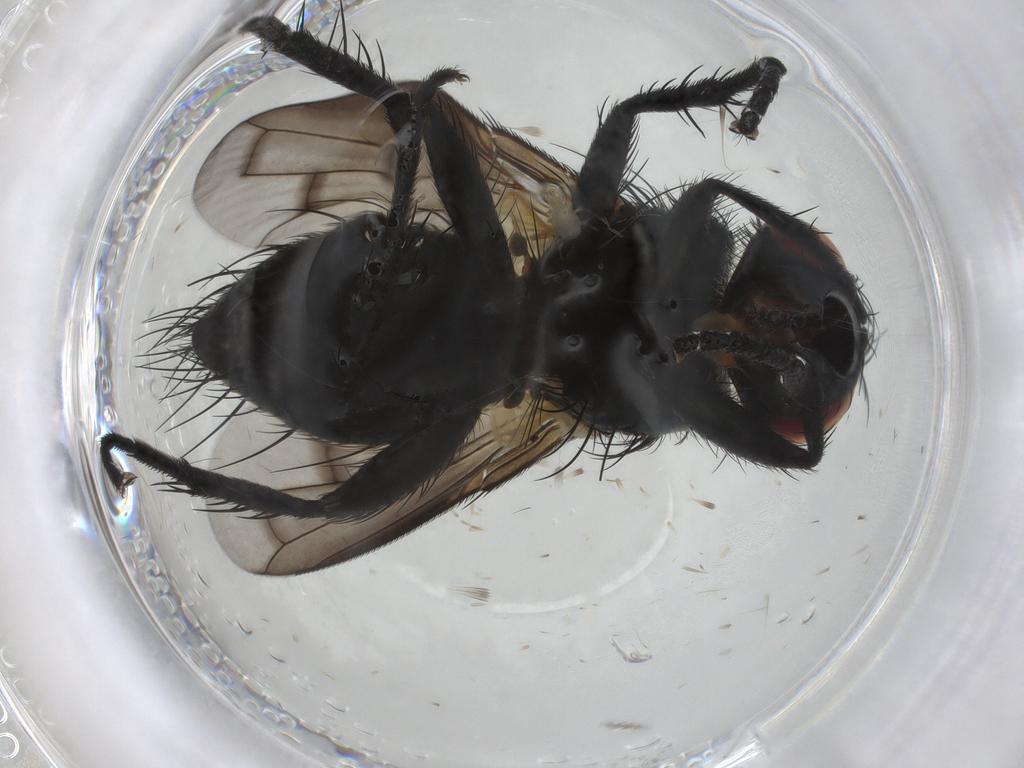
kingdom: Animalia
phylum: Arthropoda
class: Insecta
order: Diptera
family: Tachinidae
